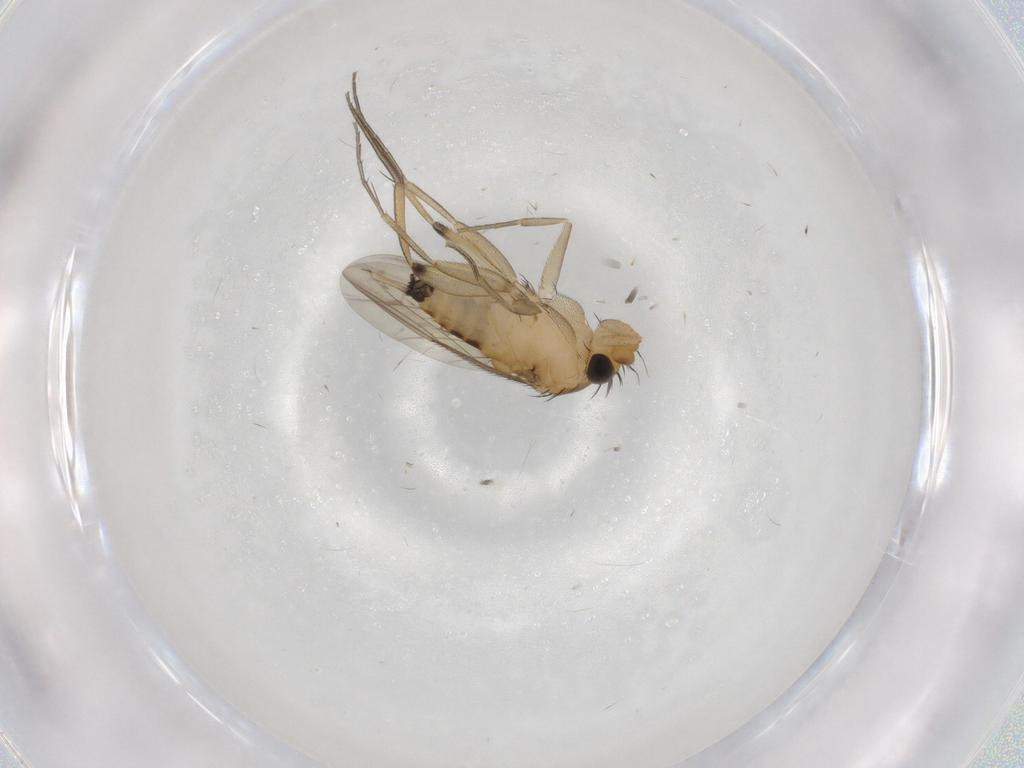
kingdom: Animalia
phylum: Arthropoda
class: Insecta
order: Diptera
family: Phoridae
